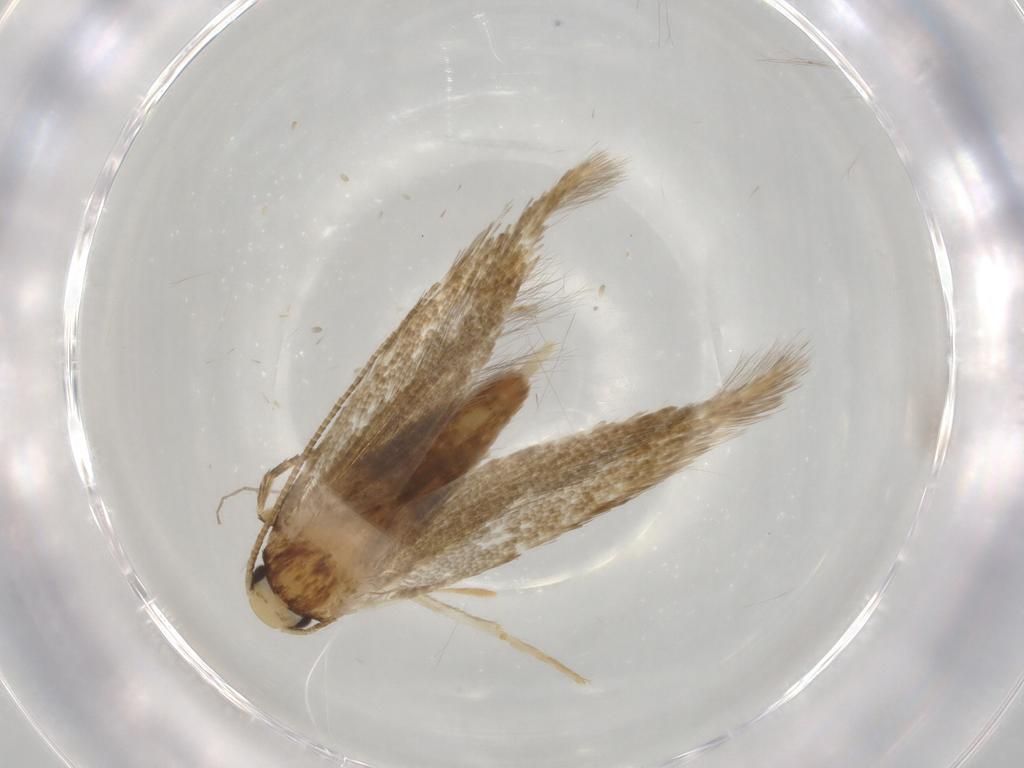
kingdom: Animalia
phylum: Arthropoda
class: Insecta
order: Lepidoptera
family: Tineidae
